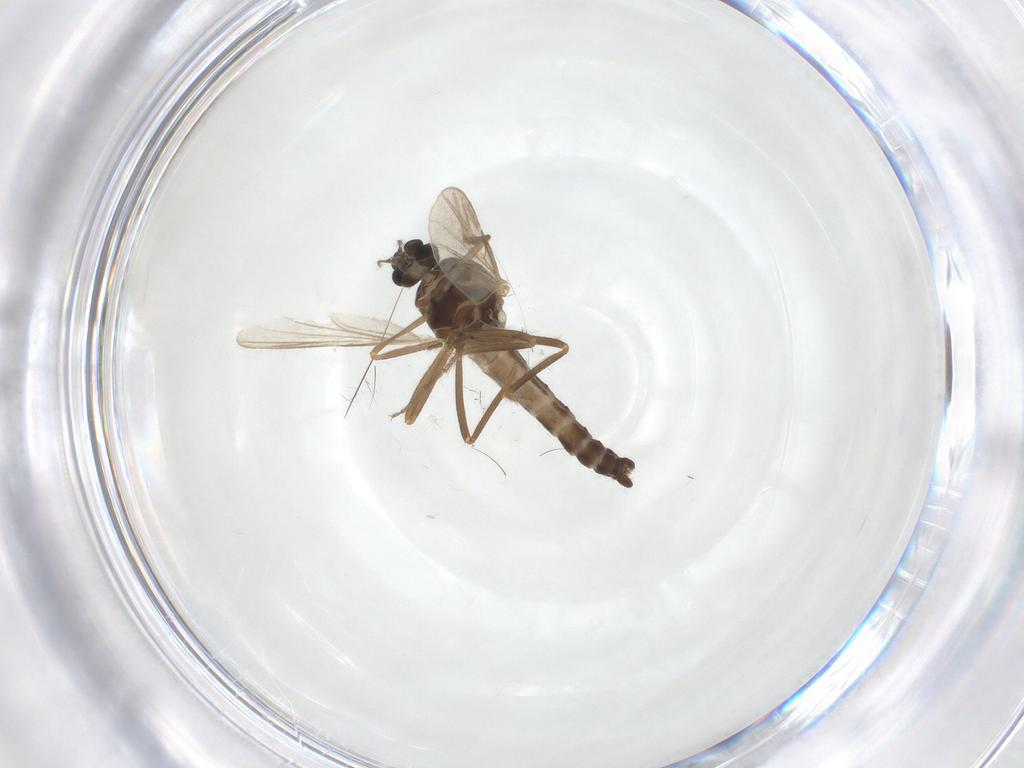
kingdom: Animalia
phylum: Arthropoda
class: Insecta
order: Diptera
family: Ceratopogonidae
